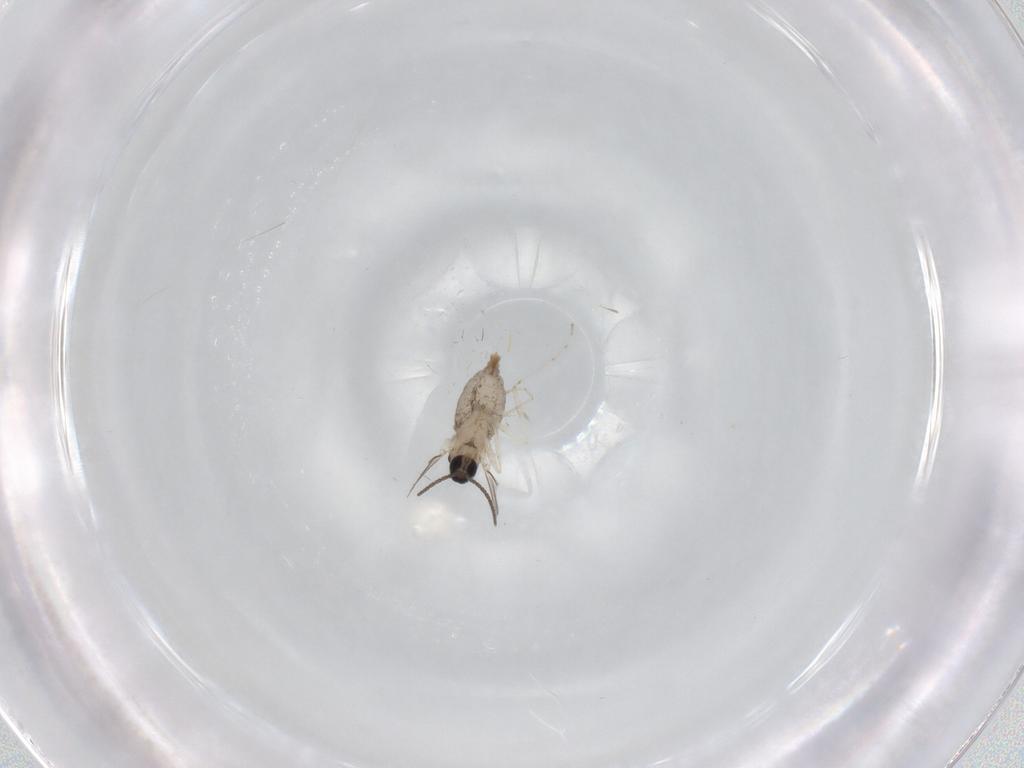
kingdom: Animalia
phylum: Arthropoda
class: Insecta
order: Diptera
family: Cecidomyiidae
